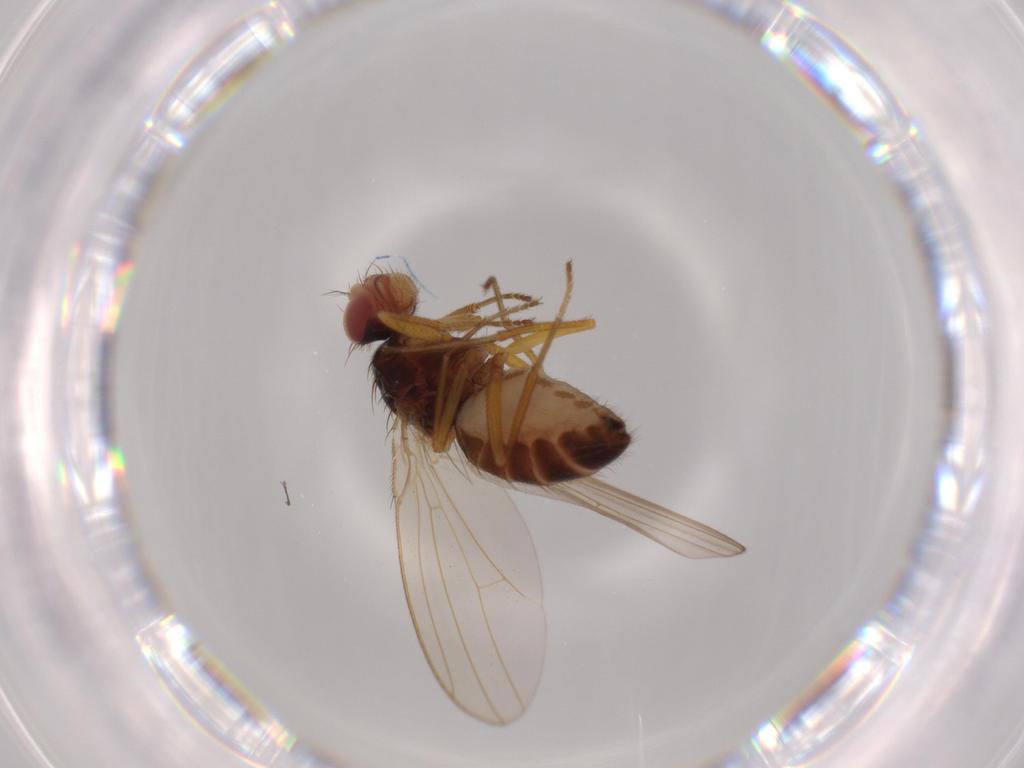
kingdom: Animalia
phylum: Arthropoda
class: Insecta
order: Diptera
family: Drosophilidae
